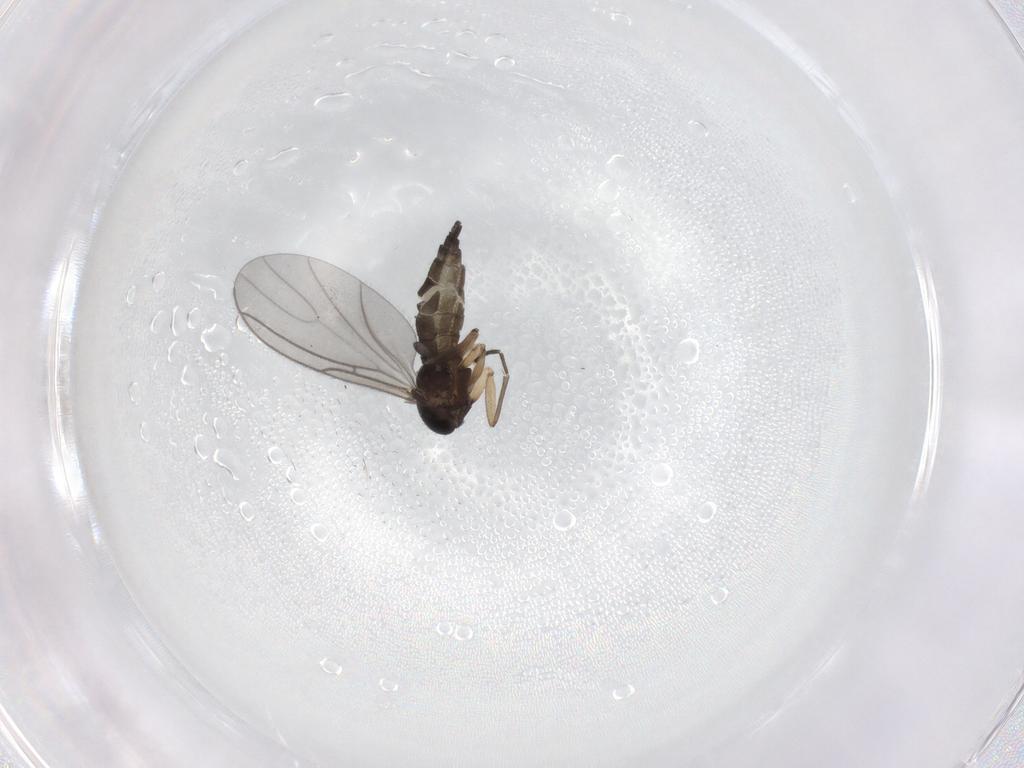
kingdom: Animalia
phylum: Arthropoda
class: Insecta
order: Diptera
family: Sciaridae
